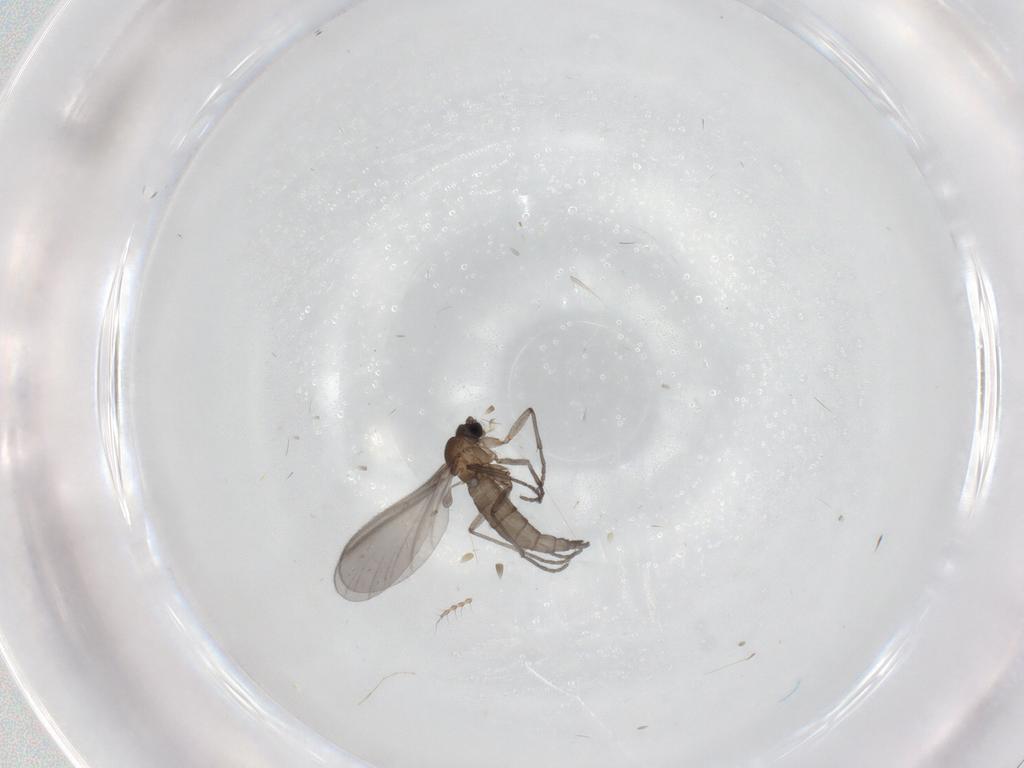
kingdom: Animalia
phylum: Arthropoda
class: Insecta
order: Diptera
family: Sciaridae
